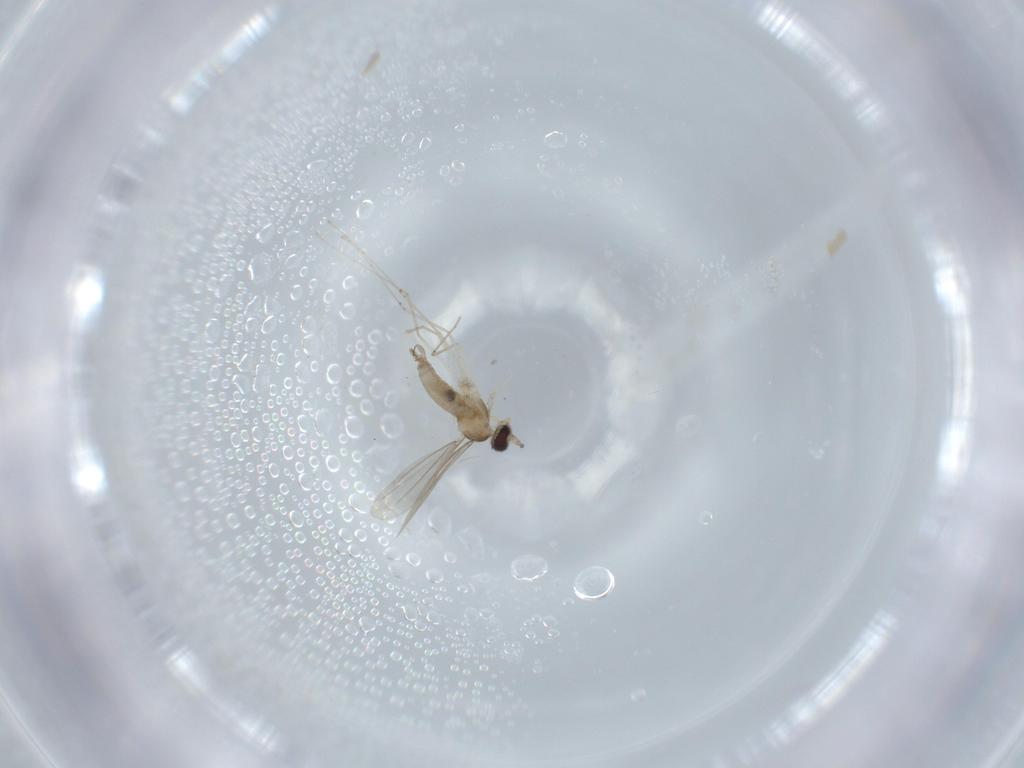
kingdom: Animalia
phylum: Arthropoda
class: Insecta
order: Diptera
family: Cecidomyiidae
